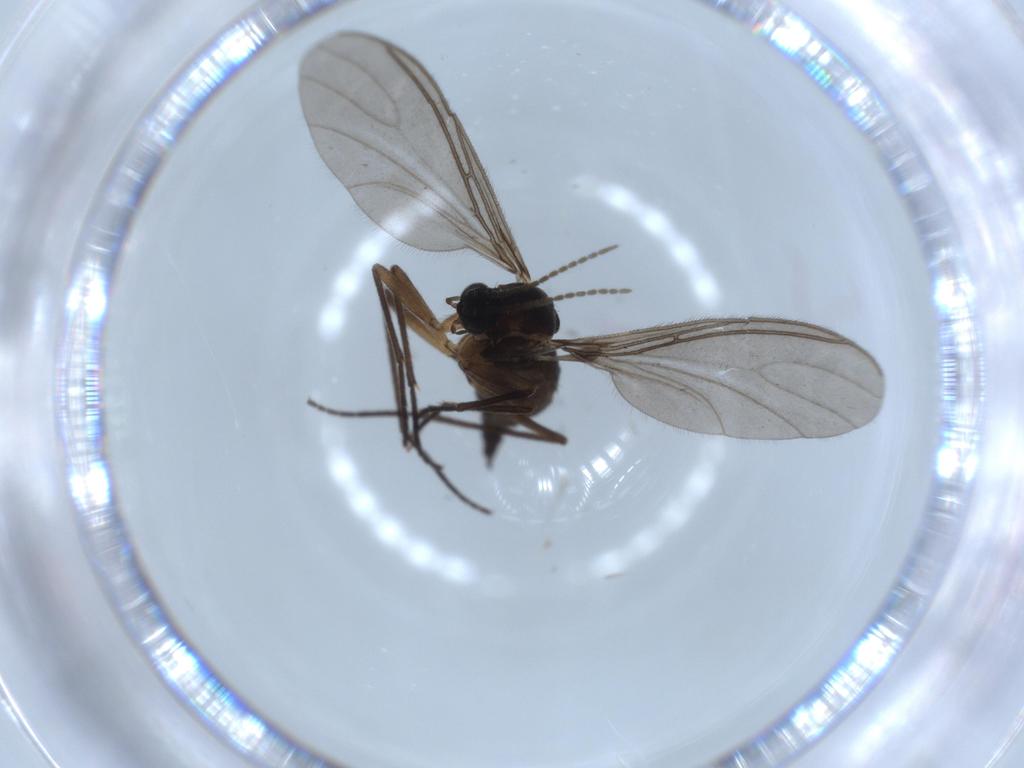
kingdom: Animalia
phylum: Arthropoda
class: Insecta
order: Diptera
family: Sciaridae
